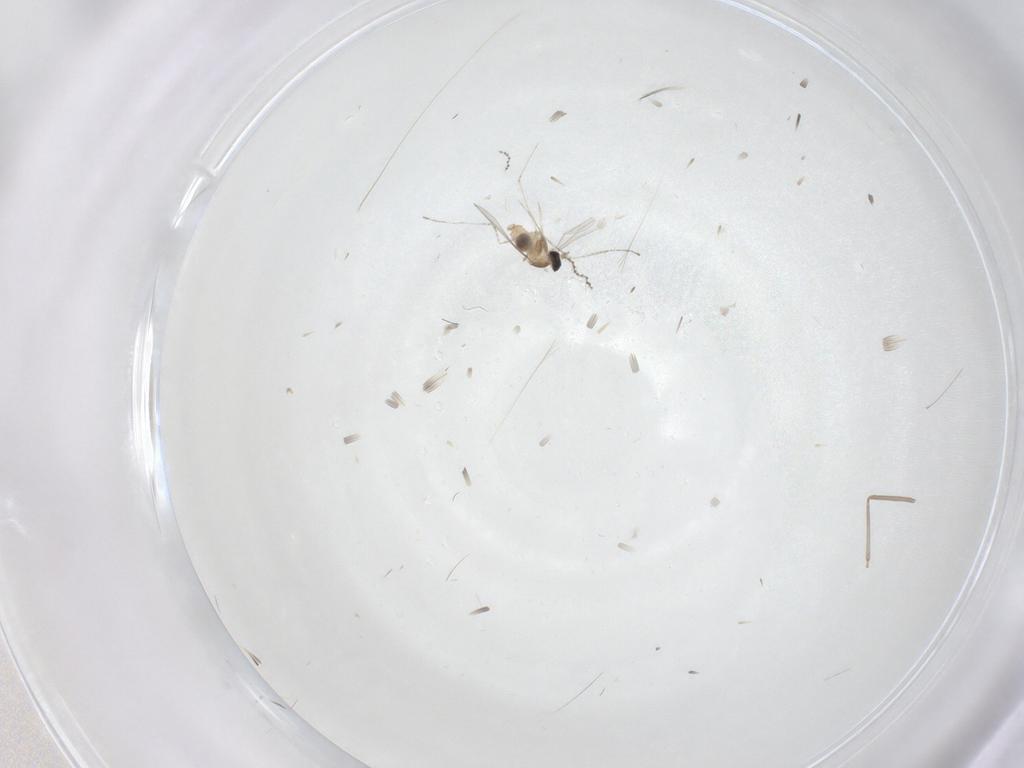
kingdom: Animalia
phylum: Arthropoda
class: Insecta
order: Diptera
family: Cecidomyiidae
